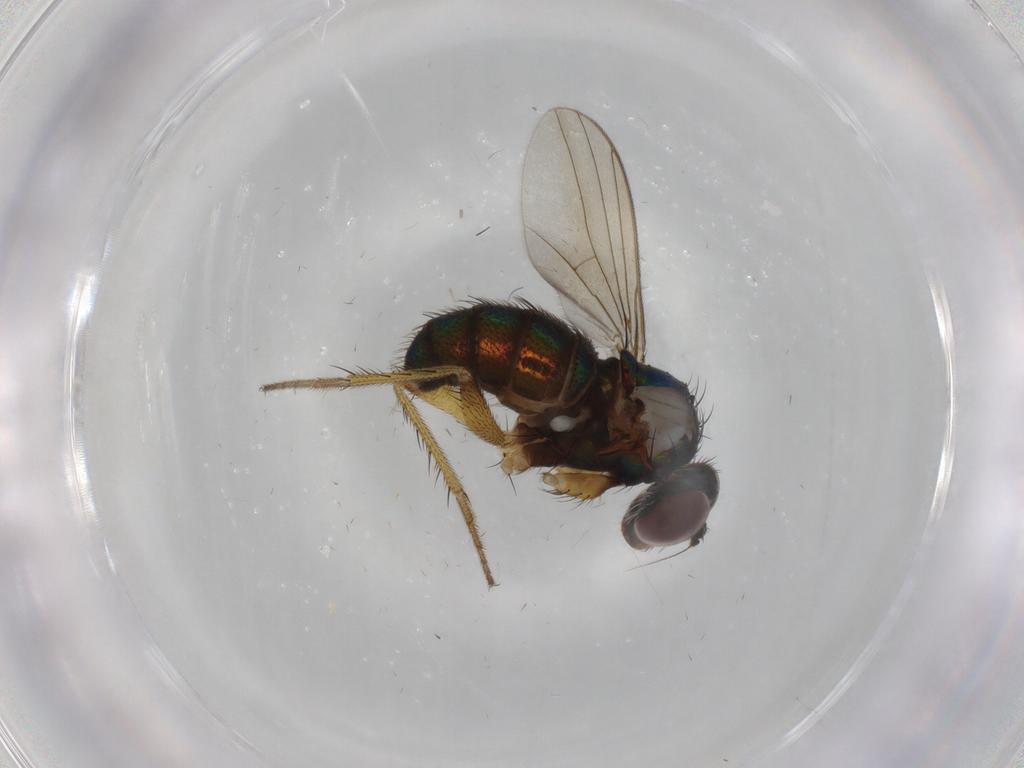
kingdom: Animalia
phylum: Arthropoda
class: Insecta
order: Diptera
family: Dolichopodidae
